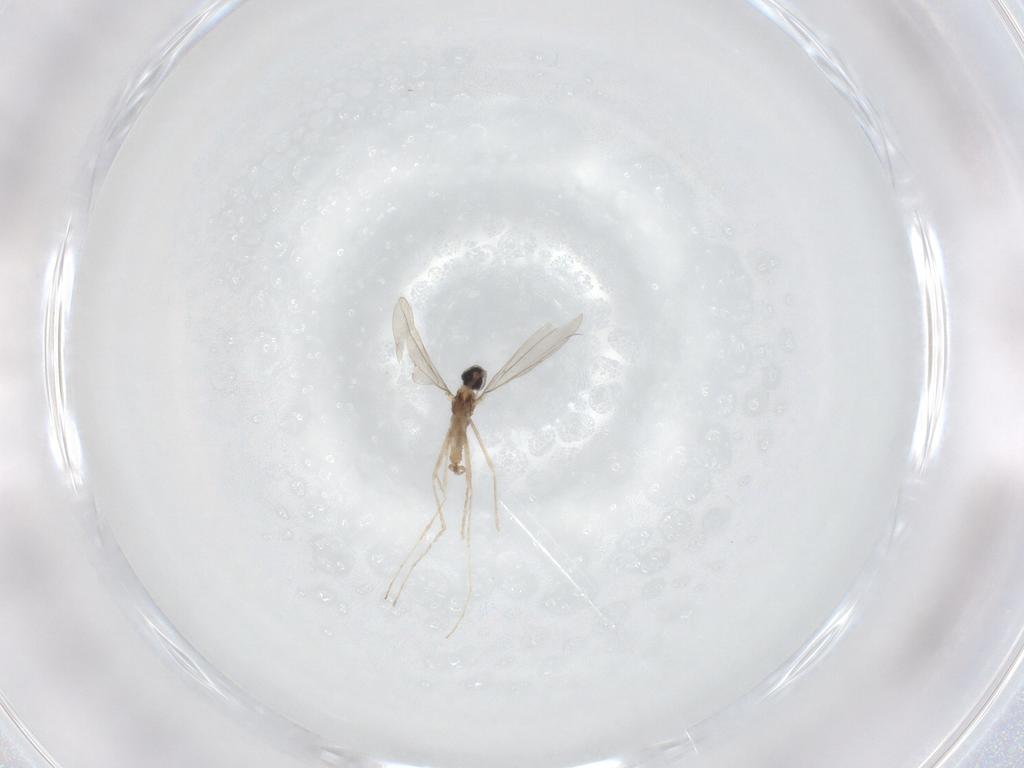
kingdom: Animalia
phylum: Arthropoda
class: Insecta
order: Diptera
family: Cecidomyiidae
